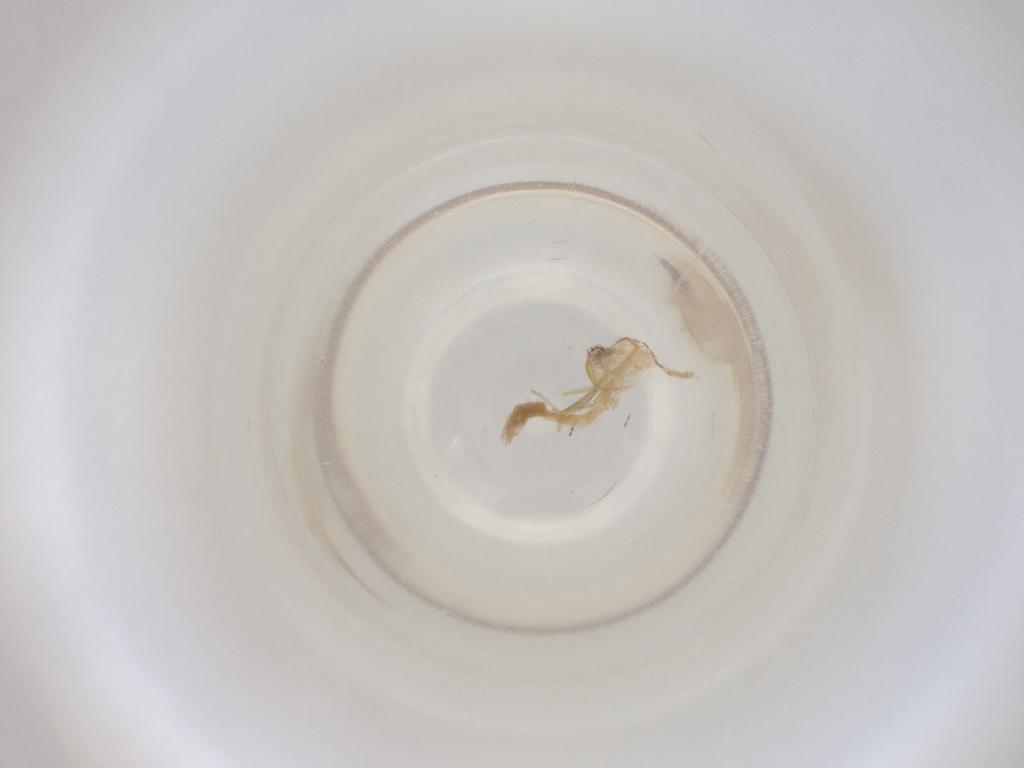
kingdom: Animalia
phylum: Arthropoda
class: Insecta
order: Diptera
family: Cecidomyiidae
